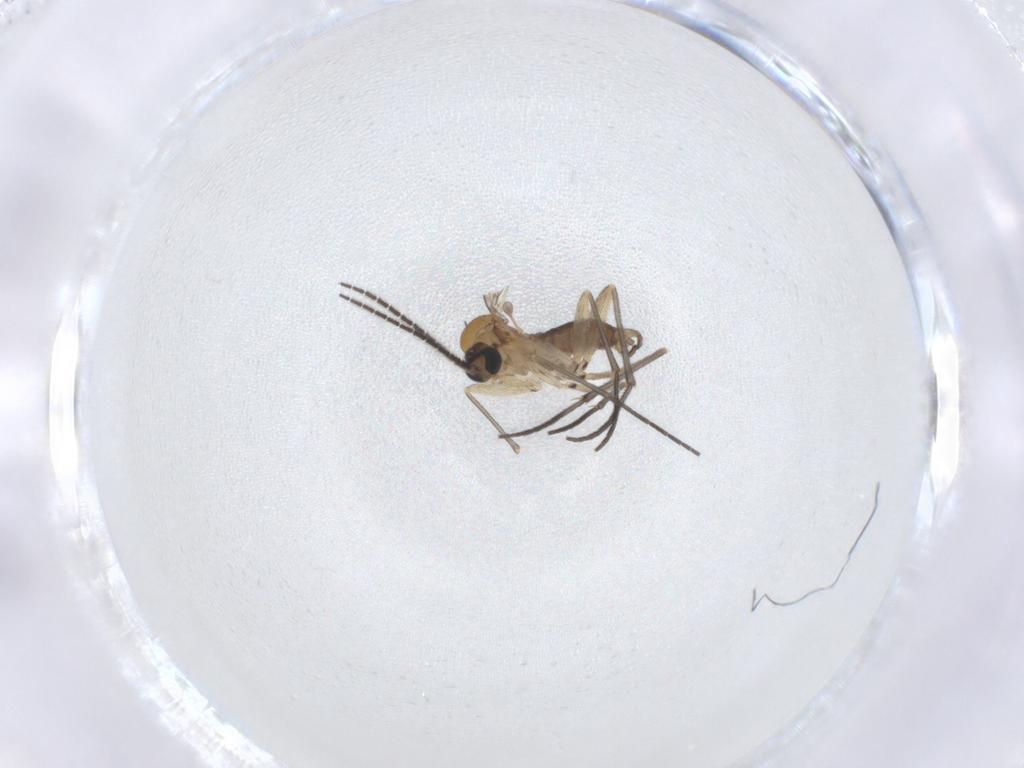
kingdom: Animalia
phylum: Arthropoda
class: Insecta
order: Diptera
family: Sciaridae
